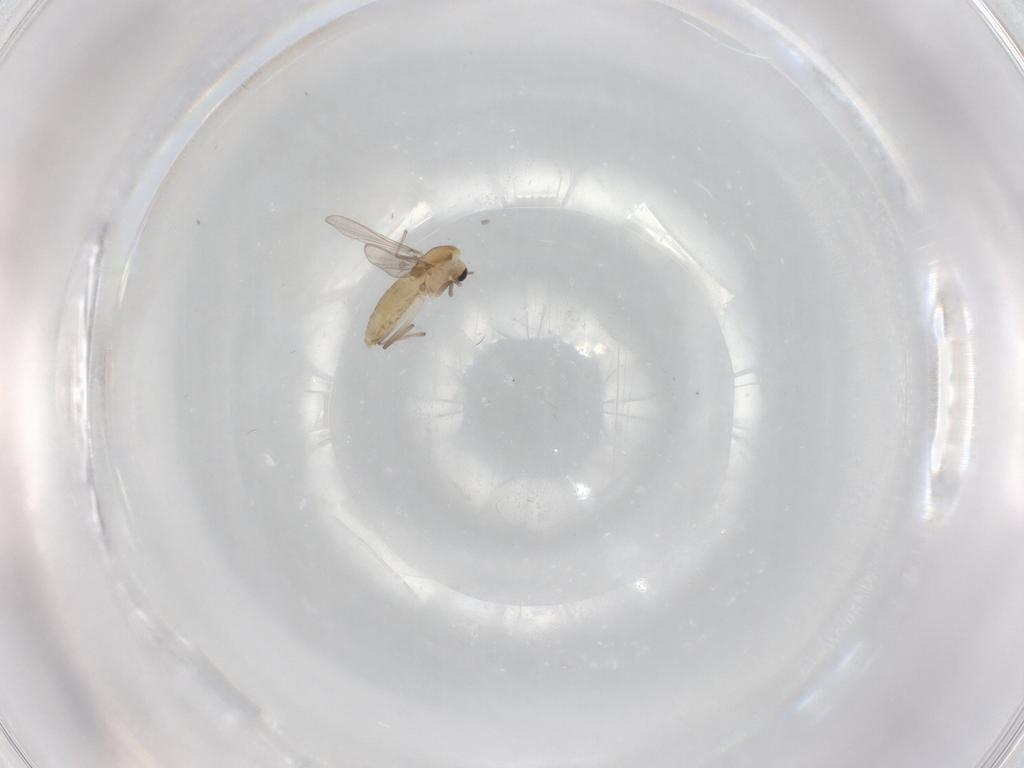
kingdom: Animalia
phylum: Arthropoda
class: Insecta
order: Diptera
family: Chironomidae
